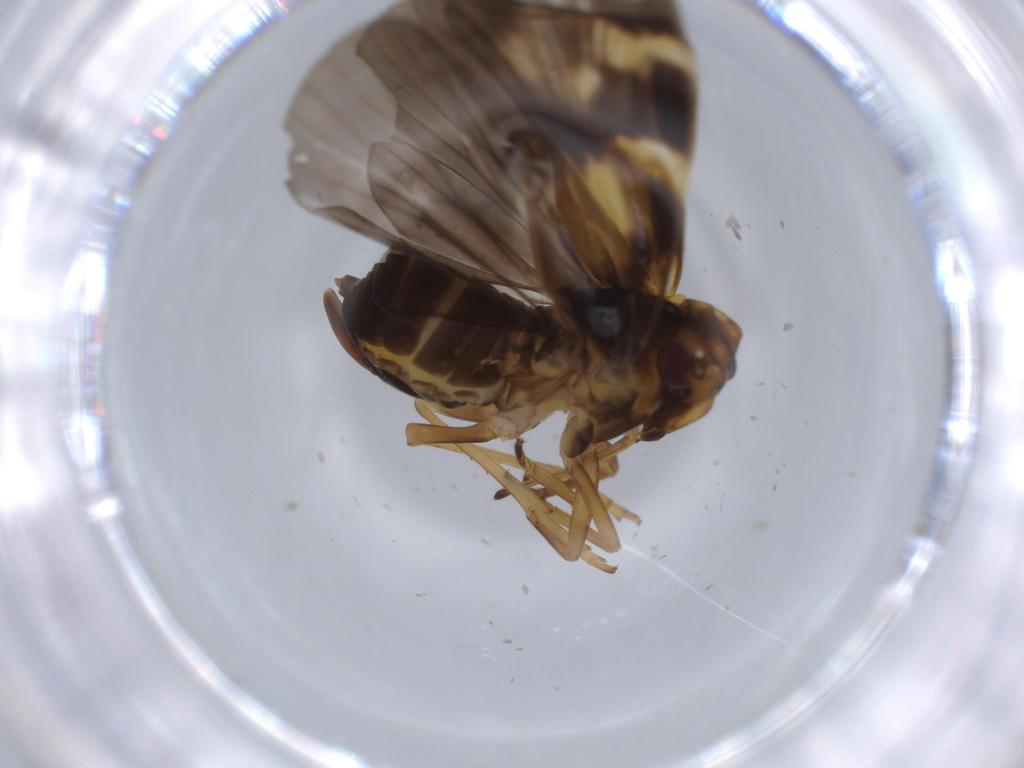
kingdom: Animalia
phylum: Arthropoda
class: Insecta
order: Hemiptera
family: Cixiidae
